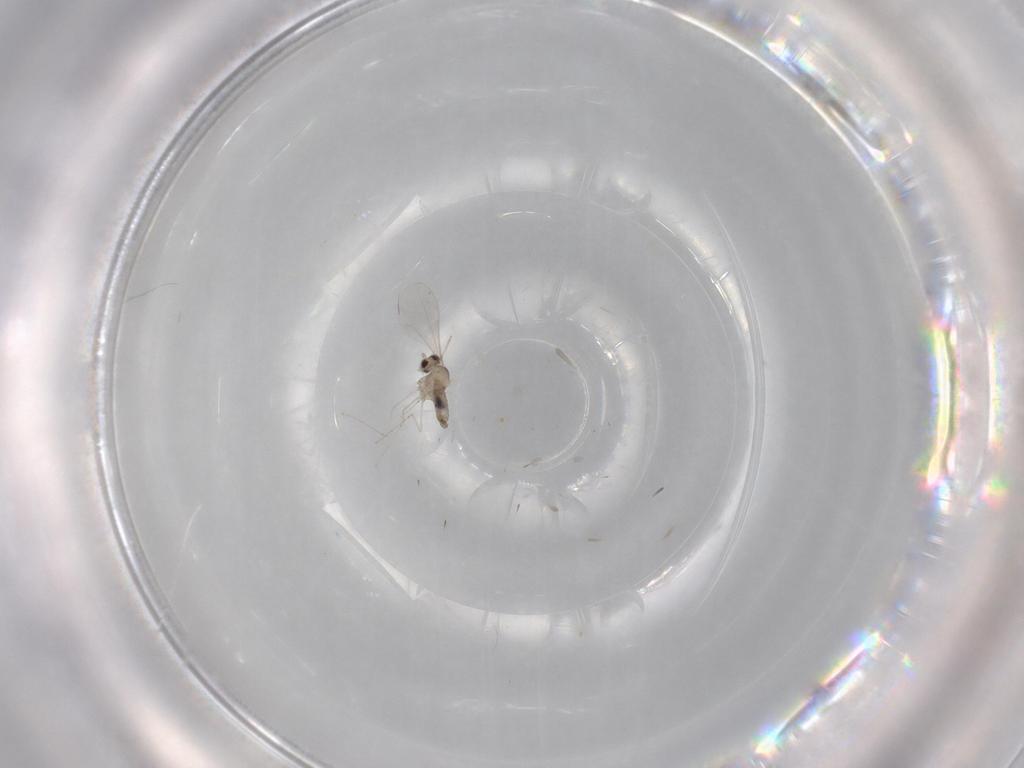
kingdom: Animalia
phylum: Arthropoda
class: Insecta
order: Diptera
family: Cecidomyiidae
